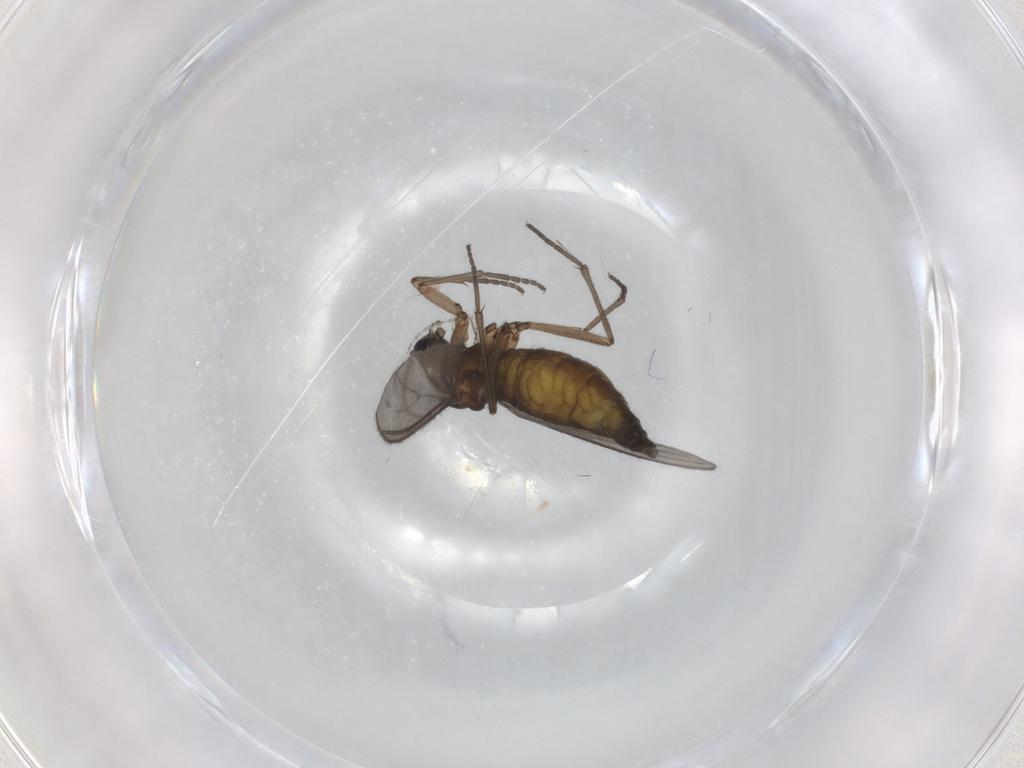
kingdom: Animalia
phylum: Arthropoda
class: Insecta
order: Diptera
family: Sciaridae
